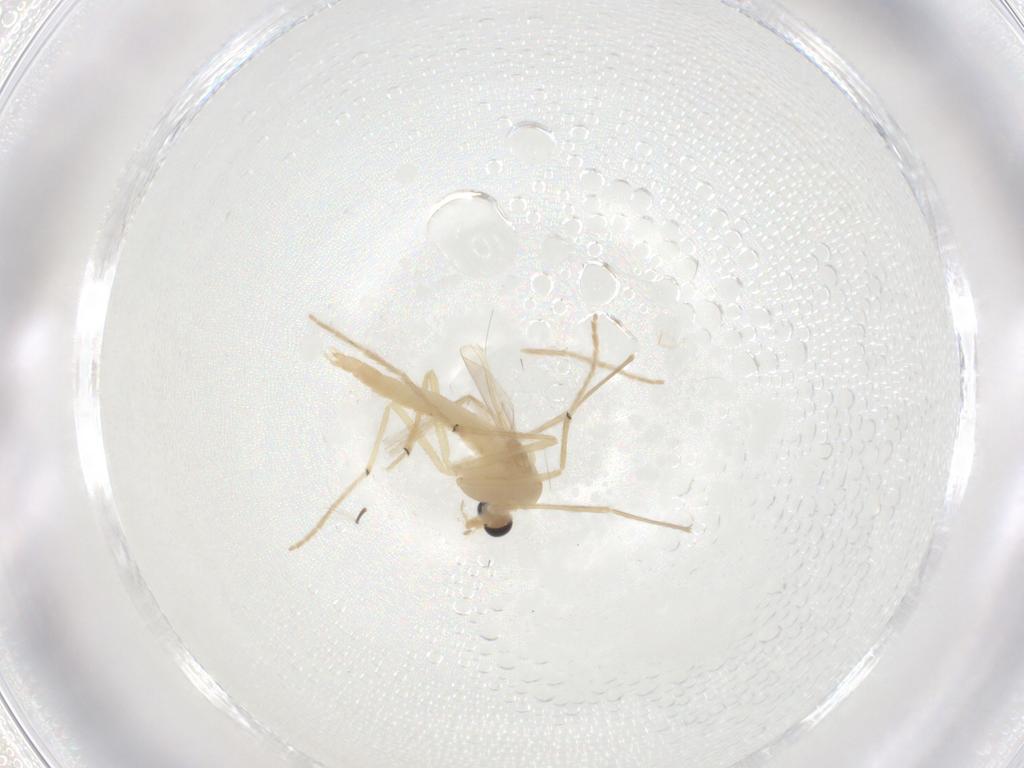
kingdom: Animalia
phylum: Arthropoda
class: Insecta
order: Diptera
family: Chironomidae
